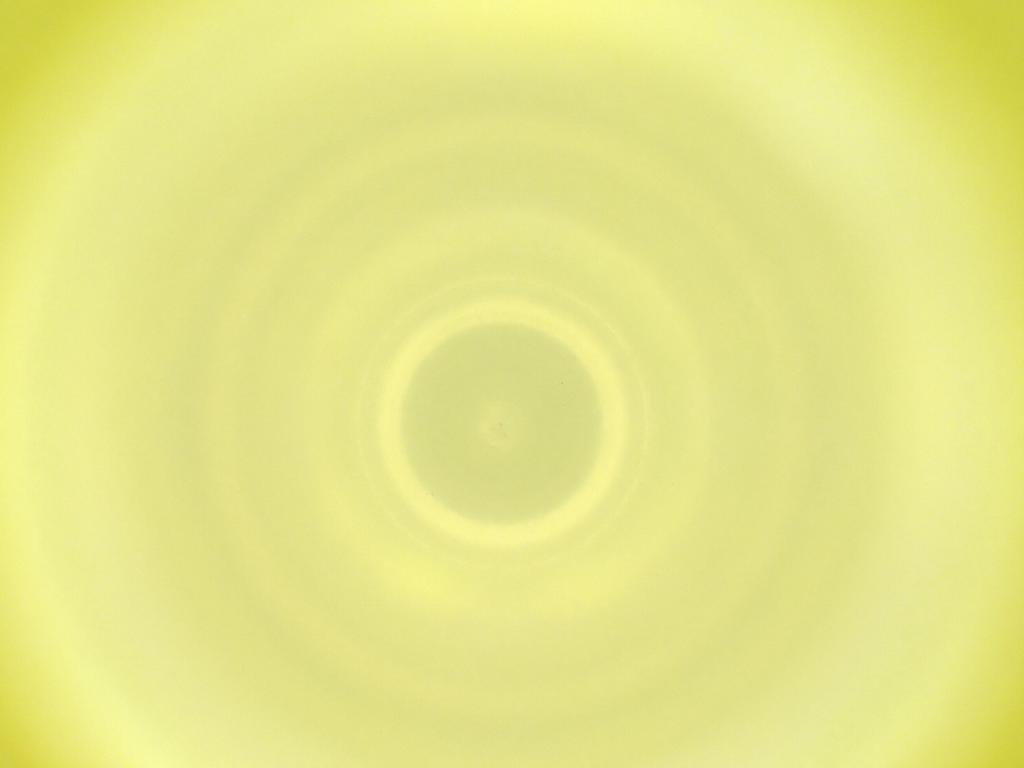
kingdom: Animalia
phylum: Arthropoda
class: Insecta
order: Diptera
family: Cecidomyiidae
